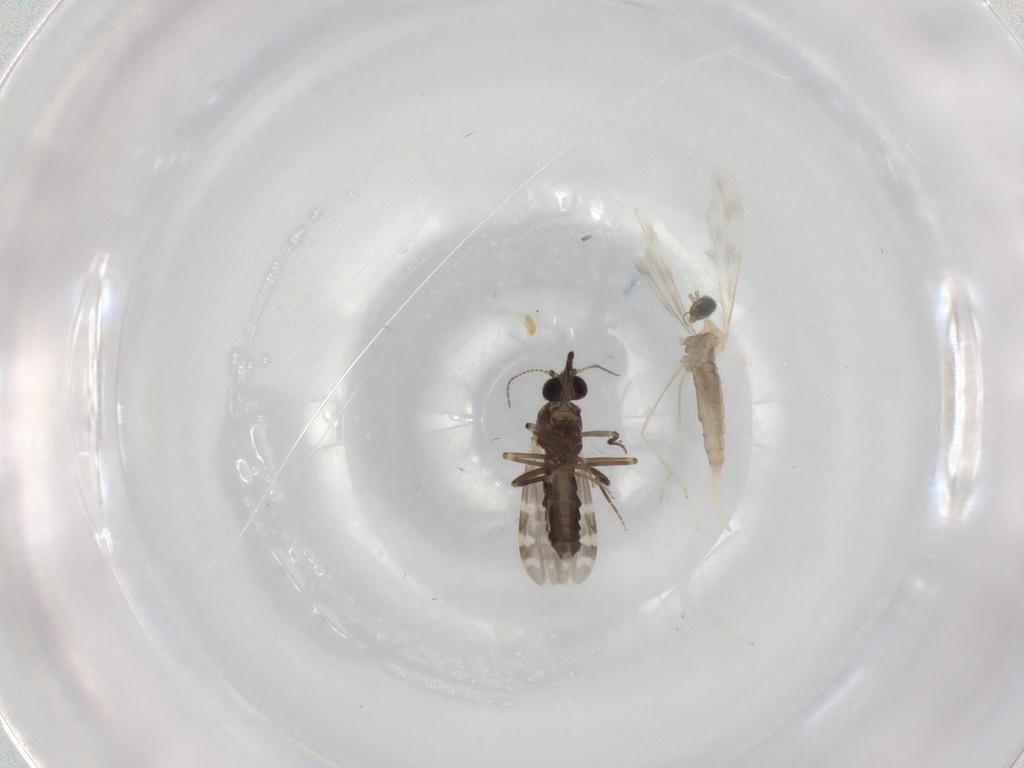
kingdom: Animalia
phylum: Arthropoda
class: Insecta
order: Diptera
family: Ceratopogonidae
